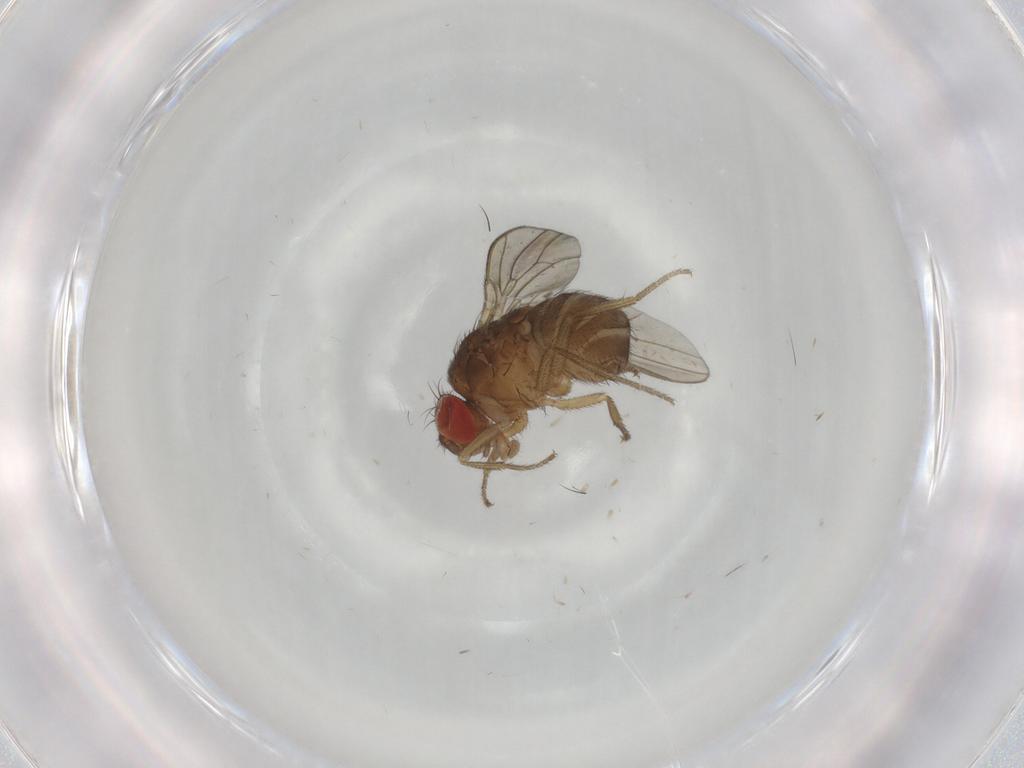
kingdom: Animalia
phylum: Arthropoda
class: Insecta
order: Diptera
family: Drosophilidae
